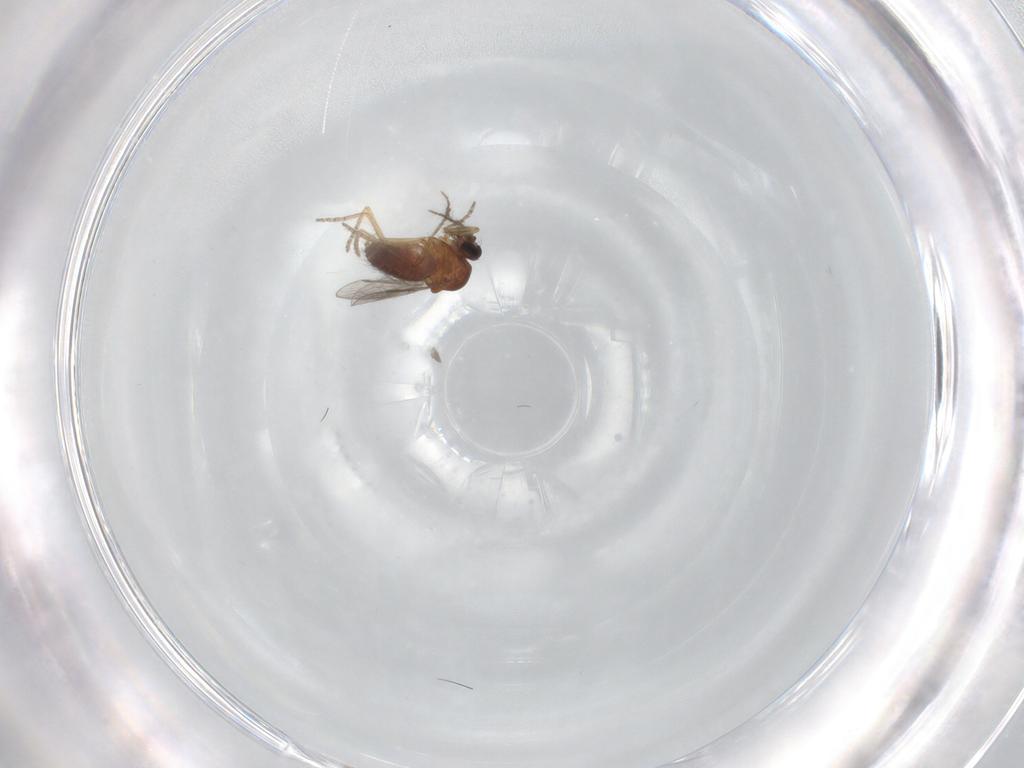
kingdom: Animalia
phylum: Arthropoda
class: Insecta
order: Diptera
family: Ceratopogonidae
